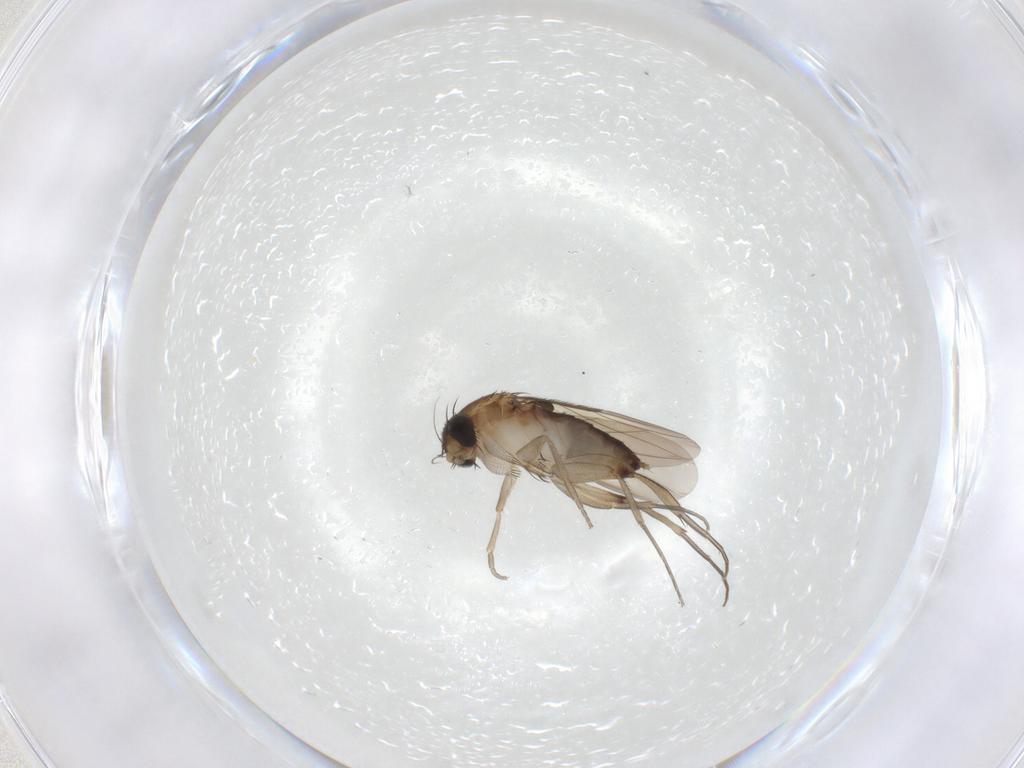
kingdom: Animalia
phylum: Arthropoda
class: Insecta
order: Diptera
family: Phoridae
